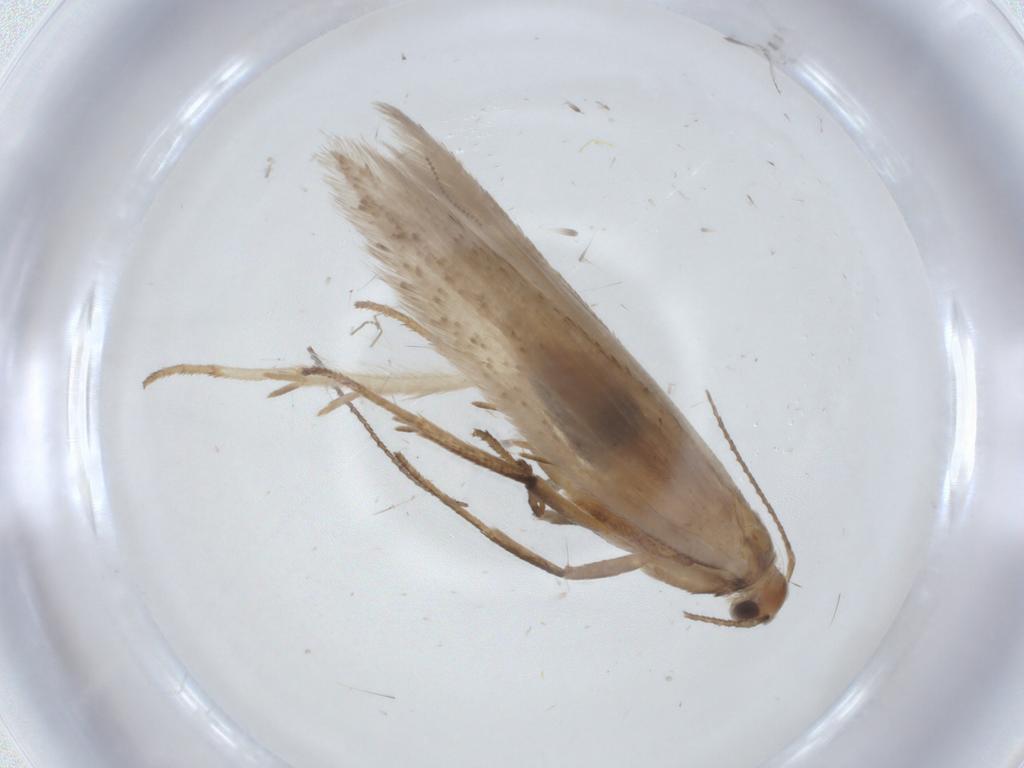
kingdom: Animalia
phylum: Arthropoda
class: Insecta
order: Lepidoptera
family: Gelechiidae
